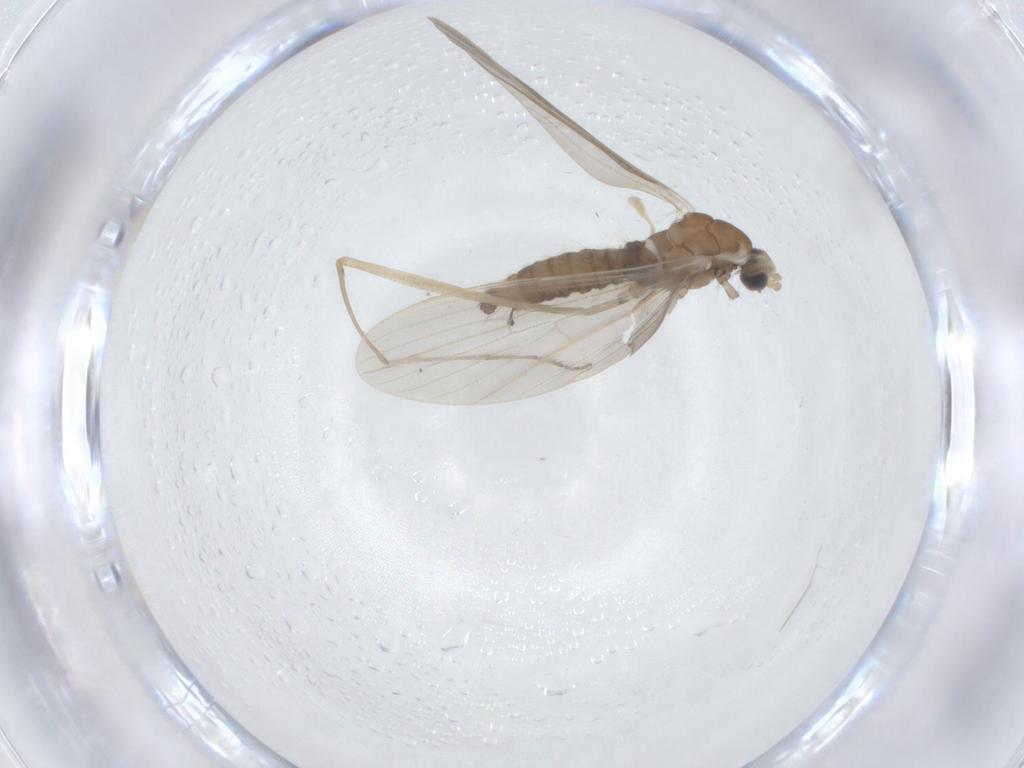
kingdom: Animalia
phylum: Arthropoda
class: Insecta
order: Diptera
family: Limoniidae
